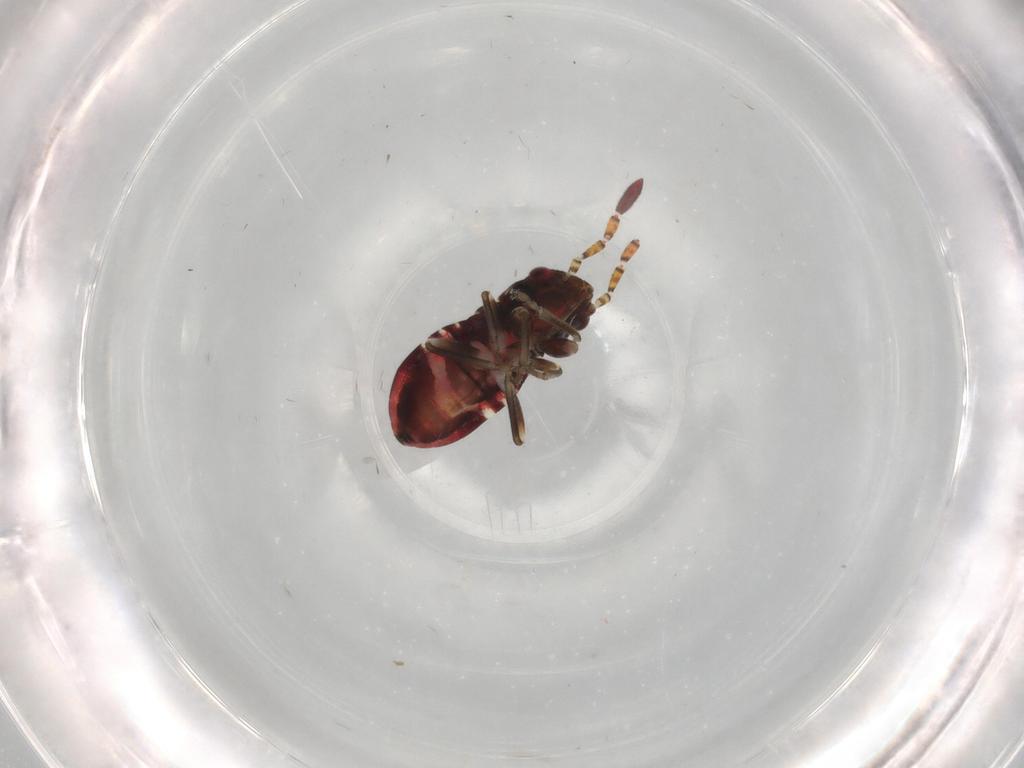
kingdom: Animalia
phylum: Arthropoda
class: Insecta
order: Hemiptera
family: Rhyparochromidae
